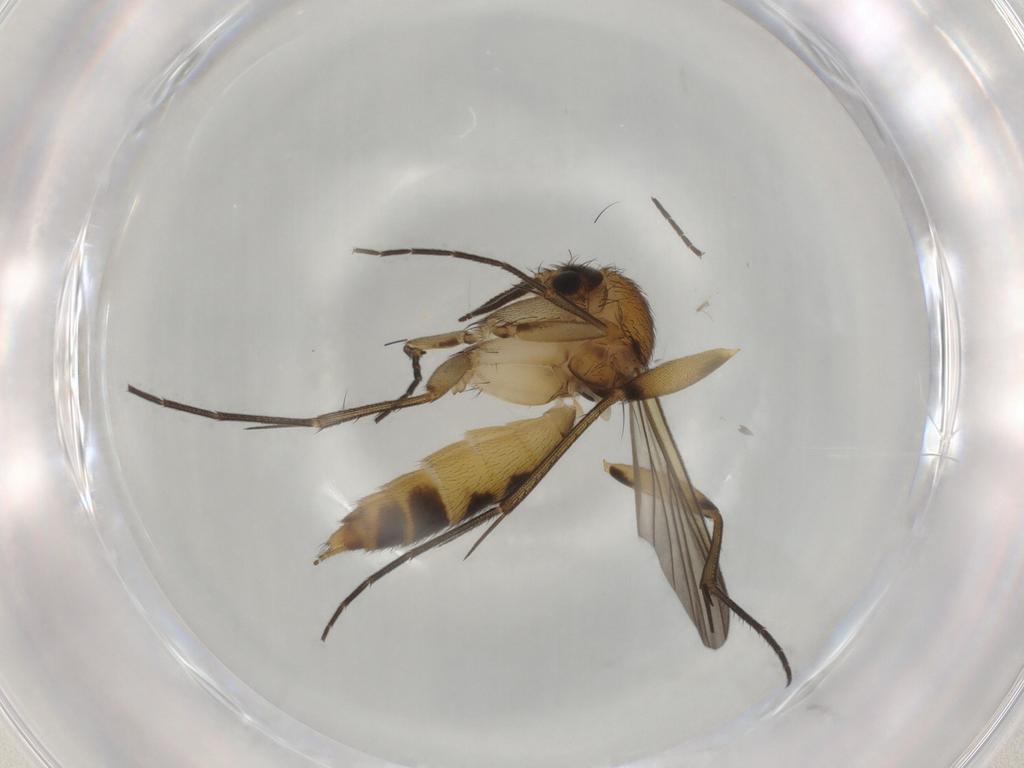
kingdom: Animalia
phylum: Arthropoda
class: Insecta
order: Diptera
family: Mycetophilidae
